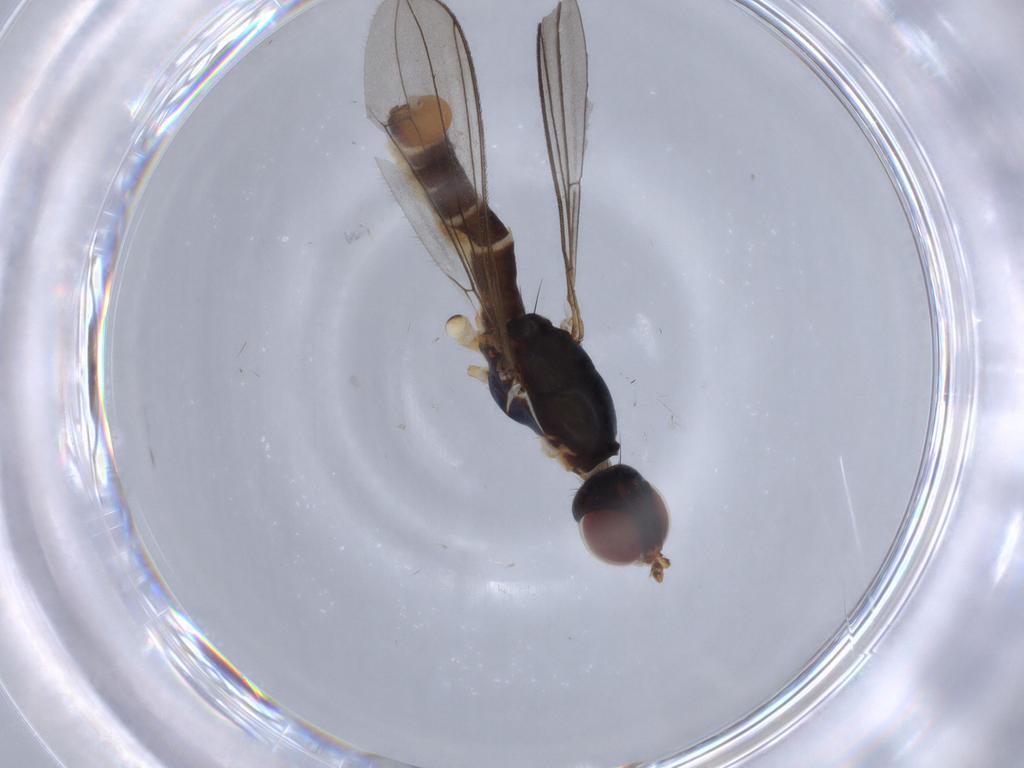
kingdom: Animalia
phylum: Arthropoda
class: Insecta
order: Diptera
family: Micropezidae
